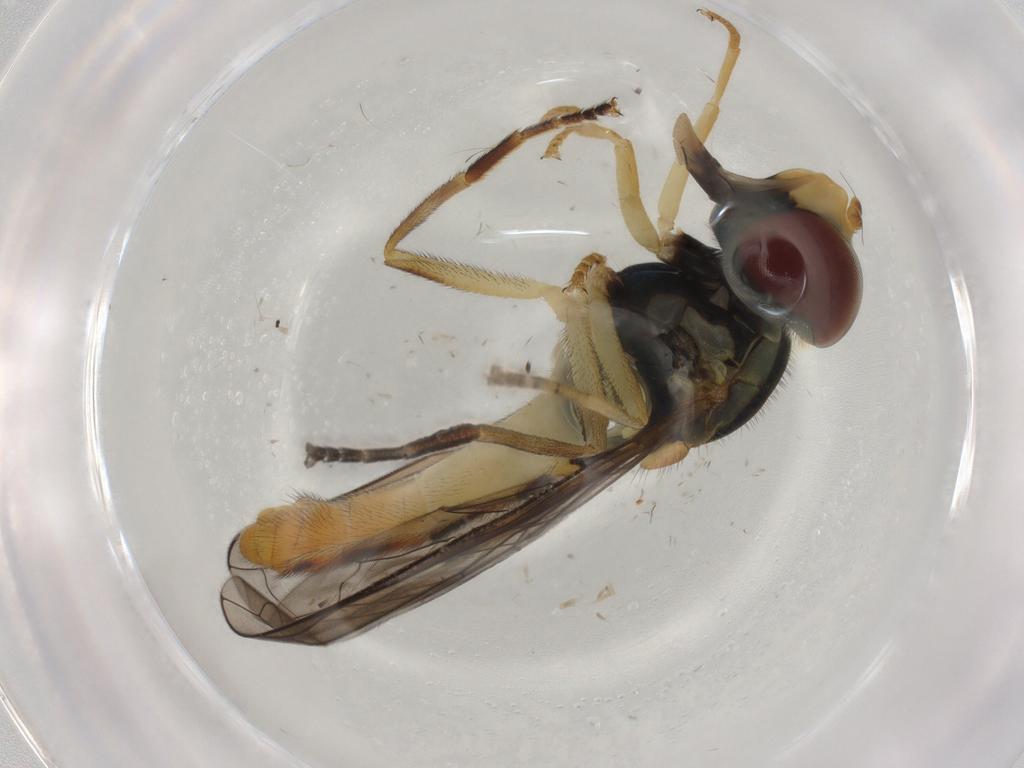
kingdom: Animalia
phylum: Arthropoda
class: Insecta
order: Diptera
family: Syrphidae
